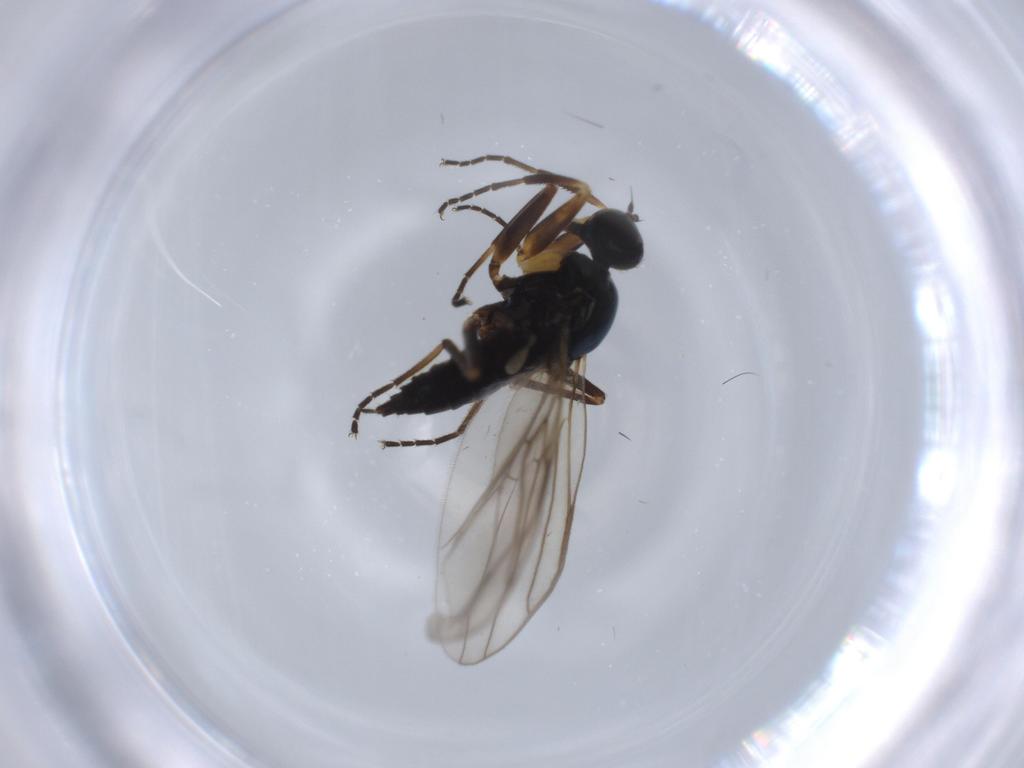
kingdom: Animalia
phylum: Arthropoda
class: Insecta
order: Diptera
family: Hybotidae
